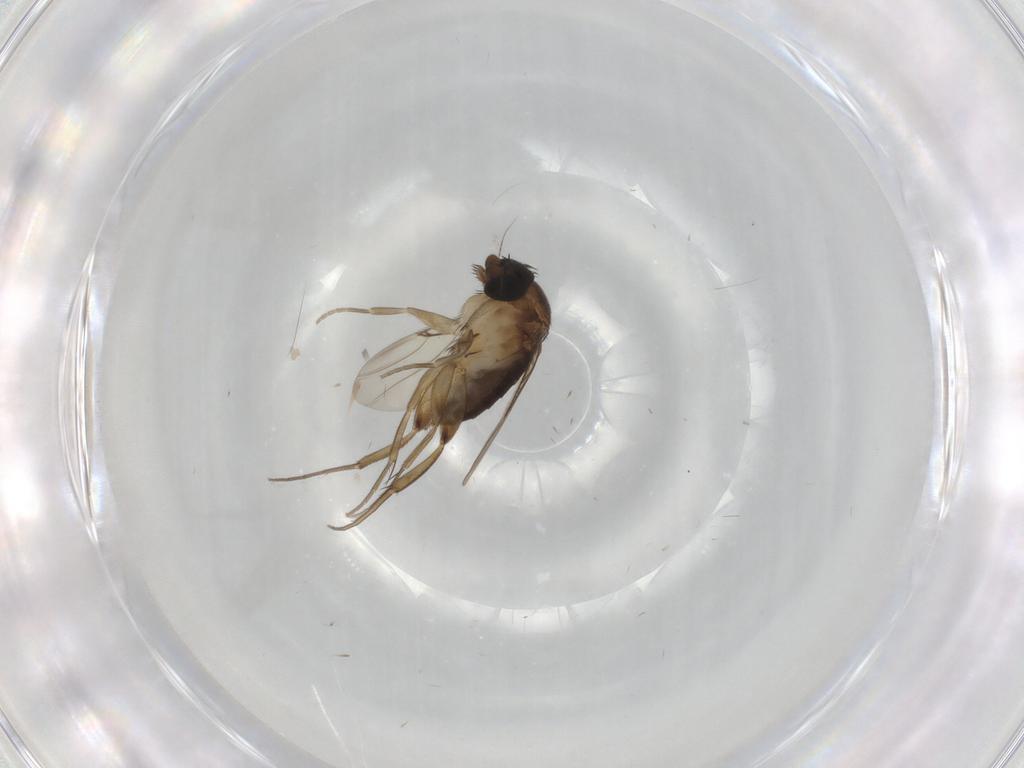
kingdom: Animalia
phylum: Arthropoda
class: Insecta
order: Diptera
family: Phoridae
